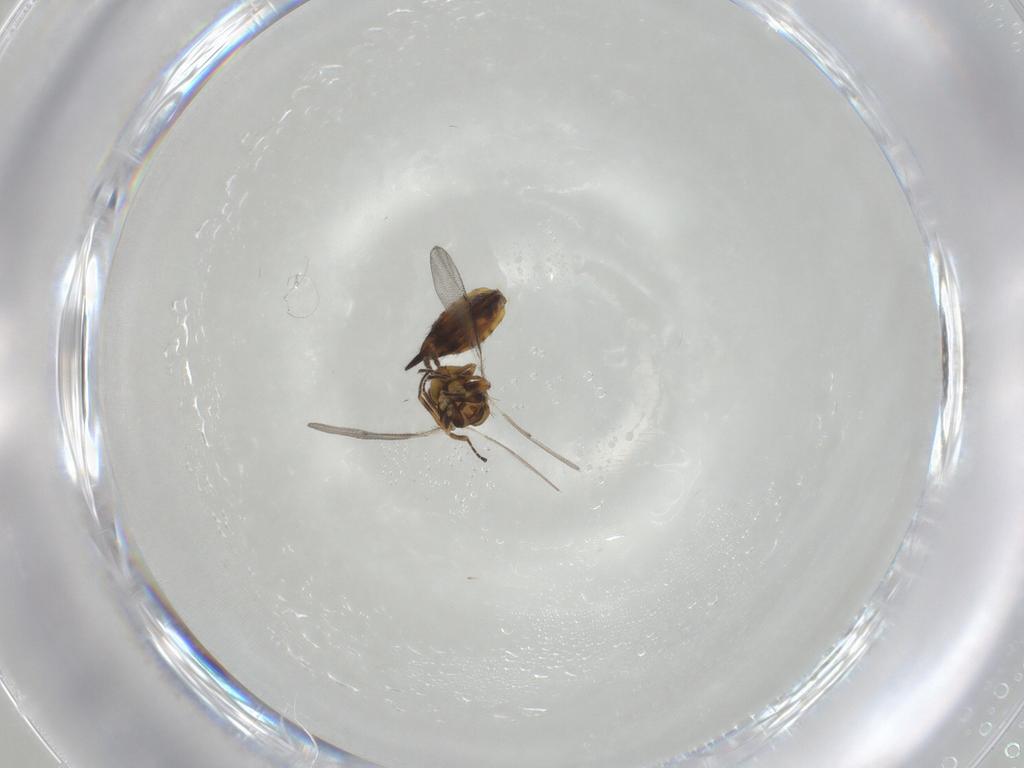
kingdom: Animalia
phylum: Arthropoda
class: Insecta
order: Hymenoptera
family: Eulophidae
